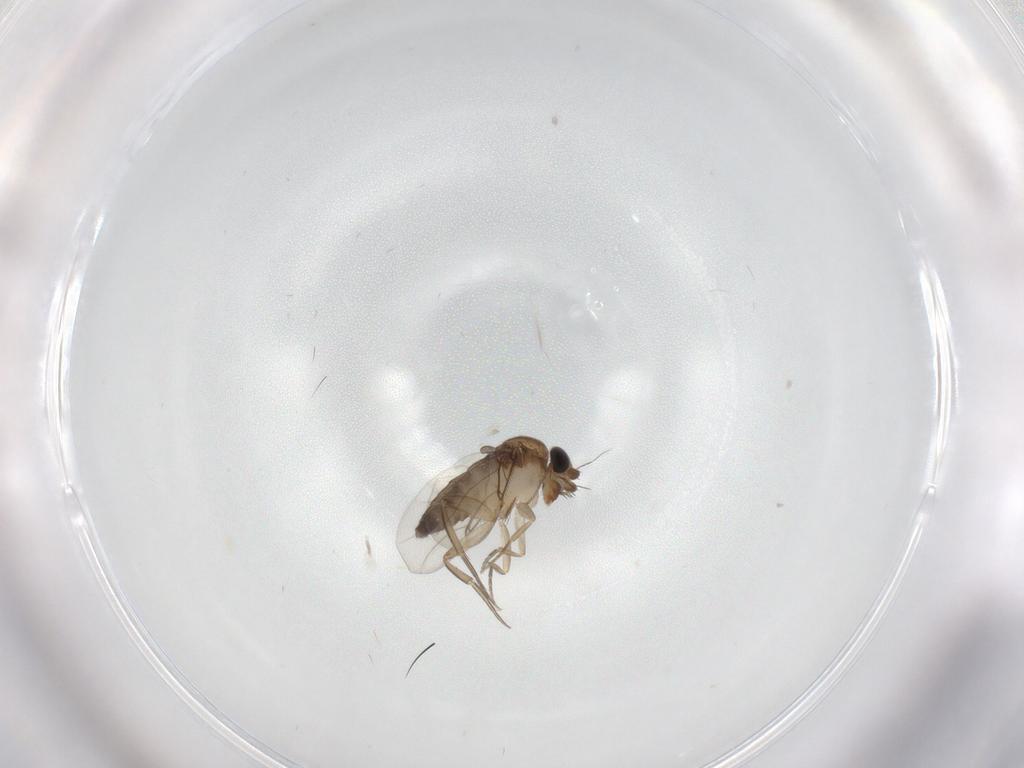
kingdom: Animalia
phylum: Arthropoda
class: Insecta
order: Diptera
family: Phoridae
